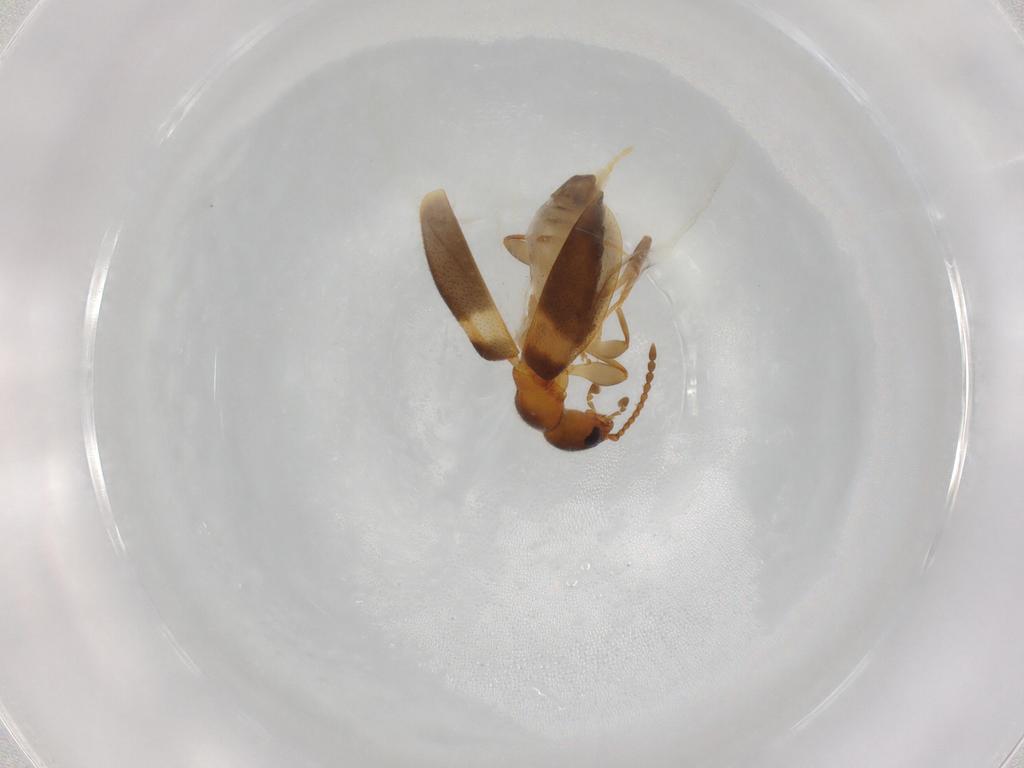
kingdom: Animalia
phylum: Arthropoda
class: Insecta
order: Coleoptera
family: Anthicidae
